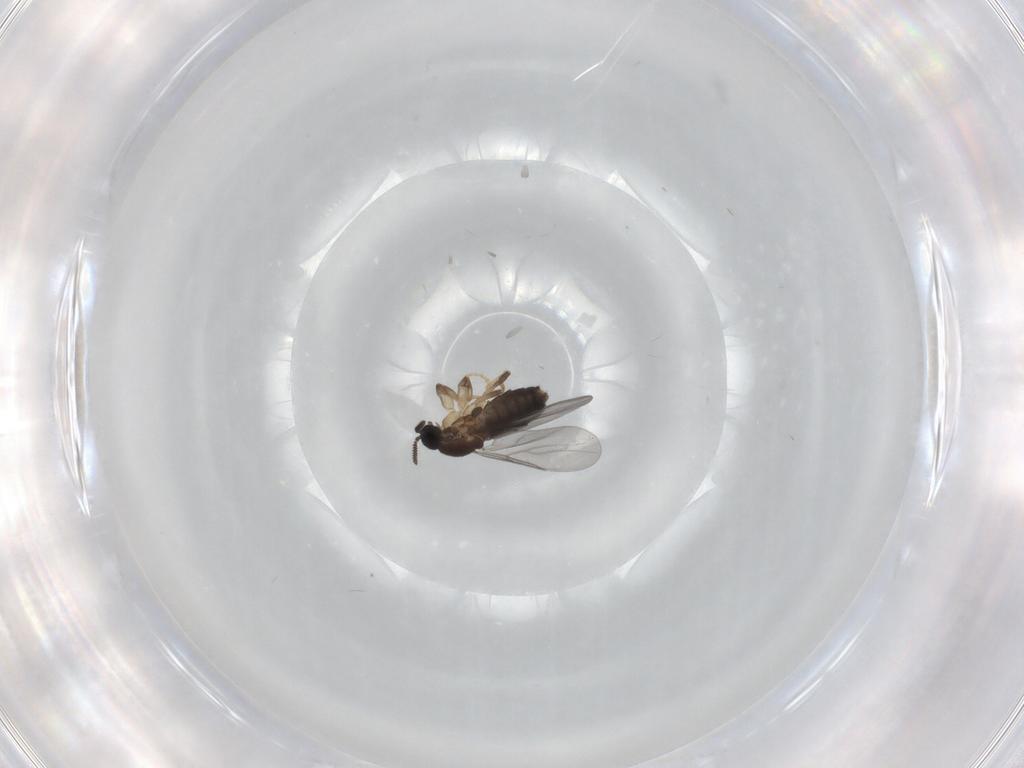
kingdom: Animalia
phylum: Arthropoda
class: Insecta
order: Diptera
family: Scatopsidae
